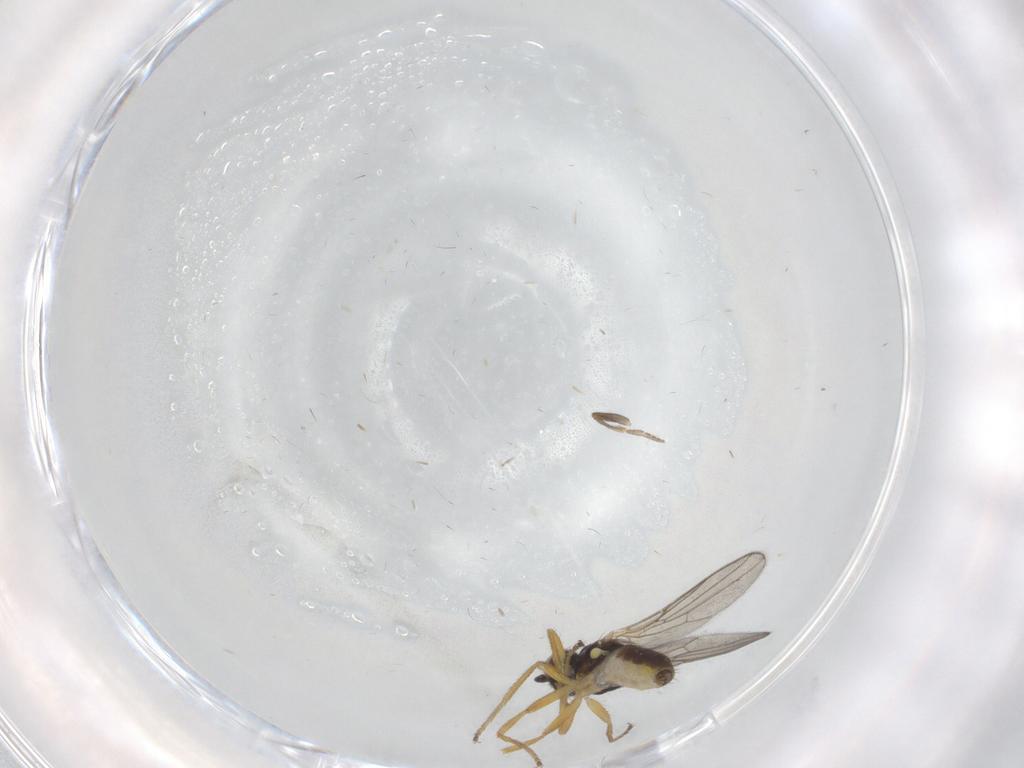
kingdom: Animalia
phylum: Arthropoda
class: Insecta
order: Diptera
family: Chloropidae
